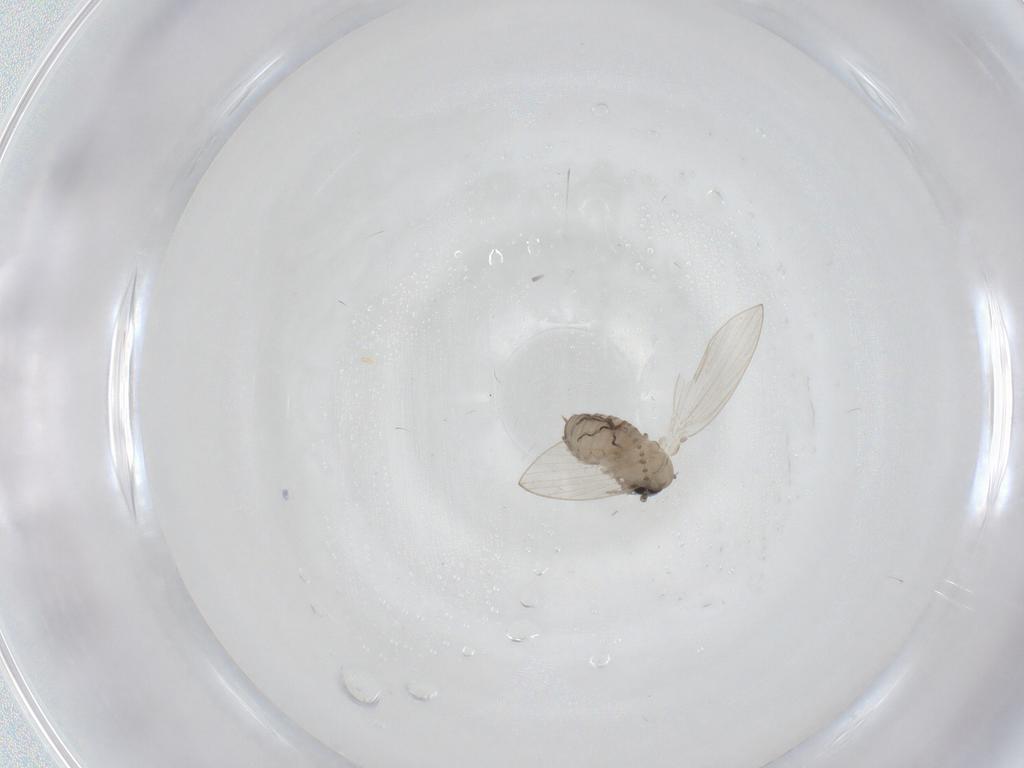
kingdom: Animalia
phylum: Arthropoda
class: Insecta
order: Diptera
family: Psychodidae
